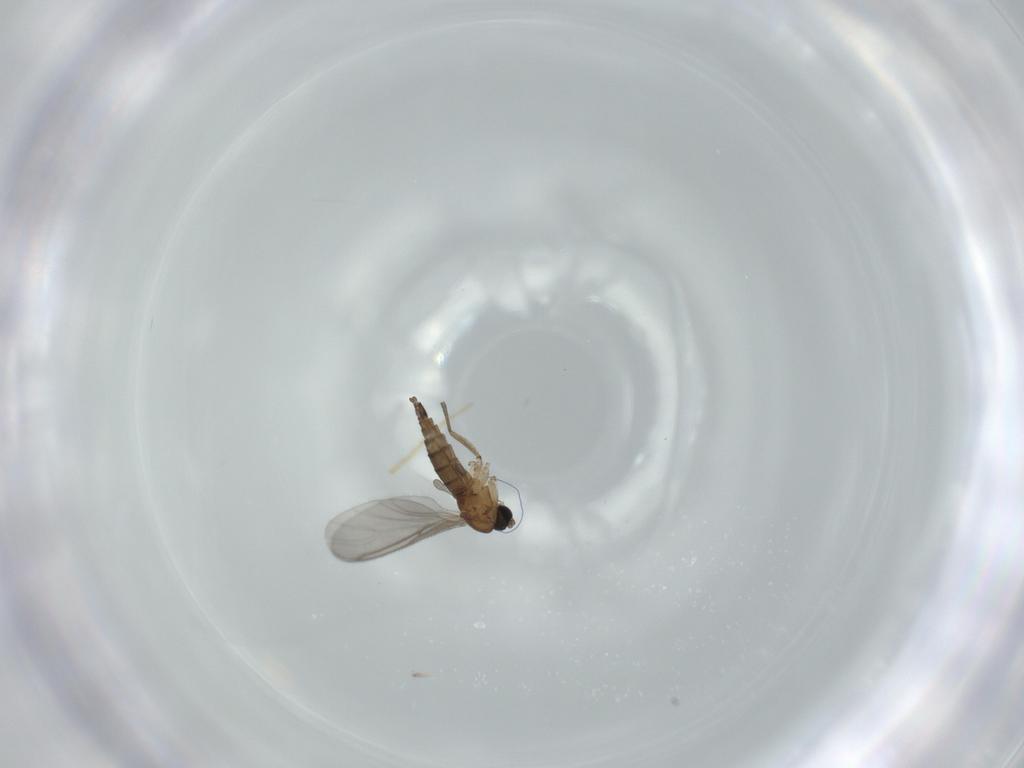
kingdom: Animalia
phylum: Arthropoda
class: Insecta
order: Diptera
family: Sciaridae
